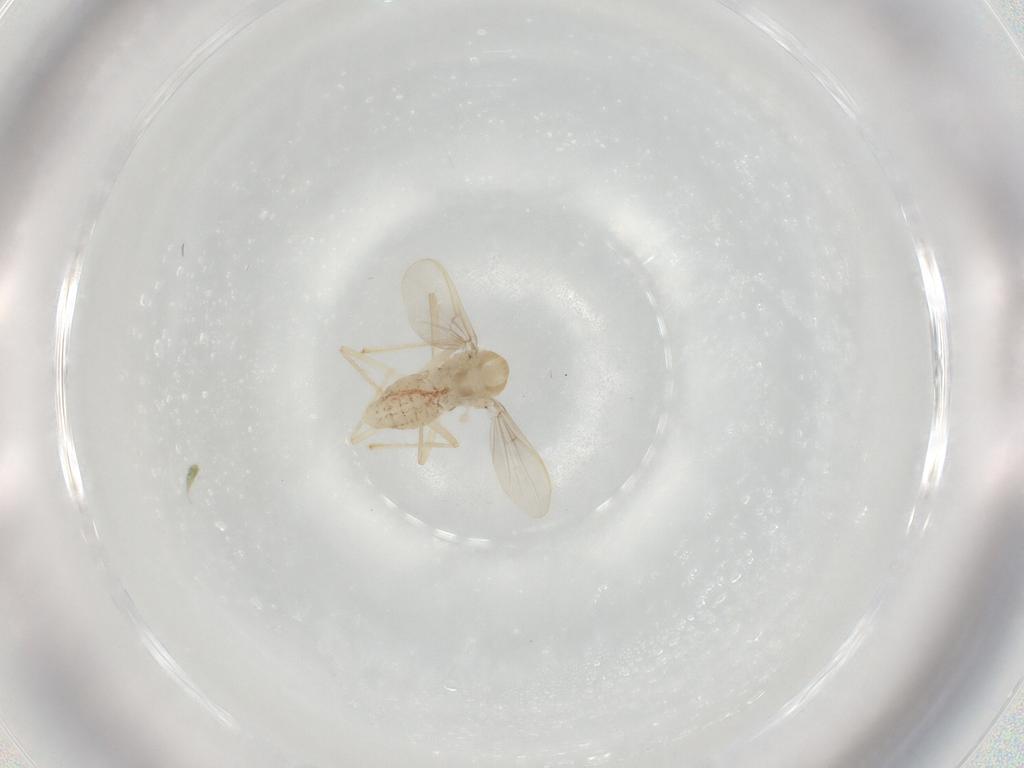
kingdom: Animalia
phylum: Arthropoda
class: Insecta
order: Diptera
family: Chironomidae
